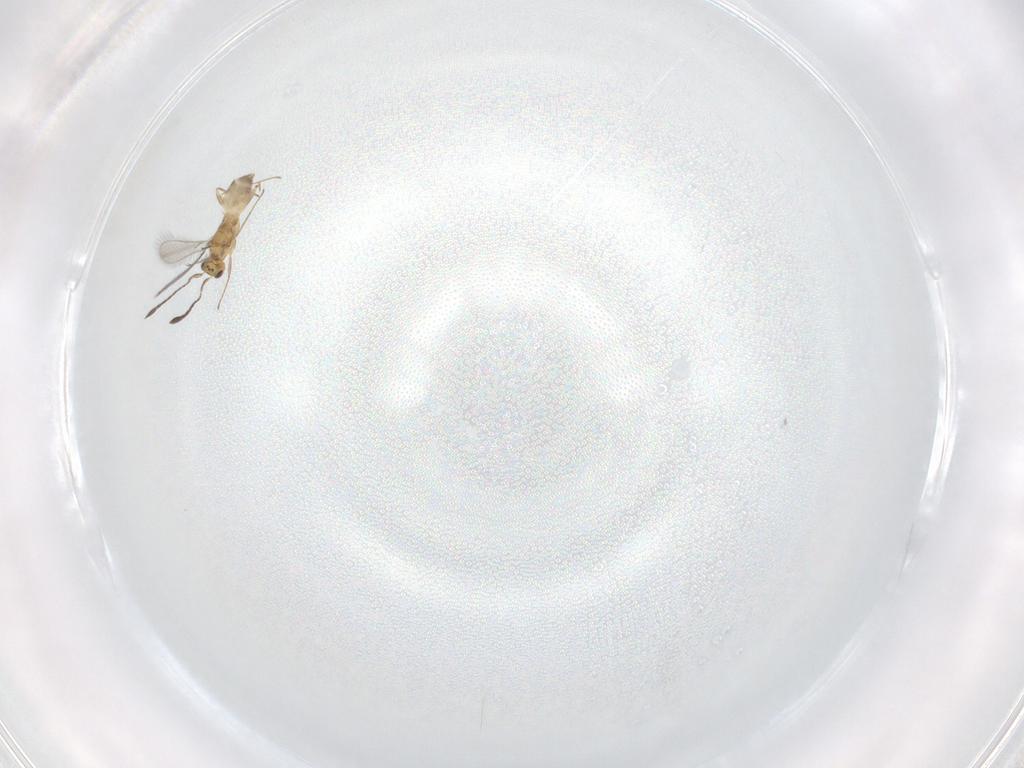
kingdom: Animalia
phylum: Arthropoda
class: Insecta
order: Hymenoptera
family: Mymaridae
